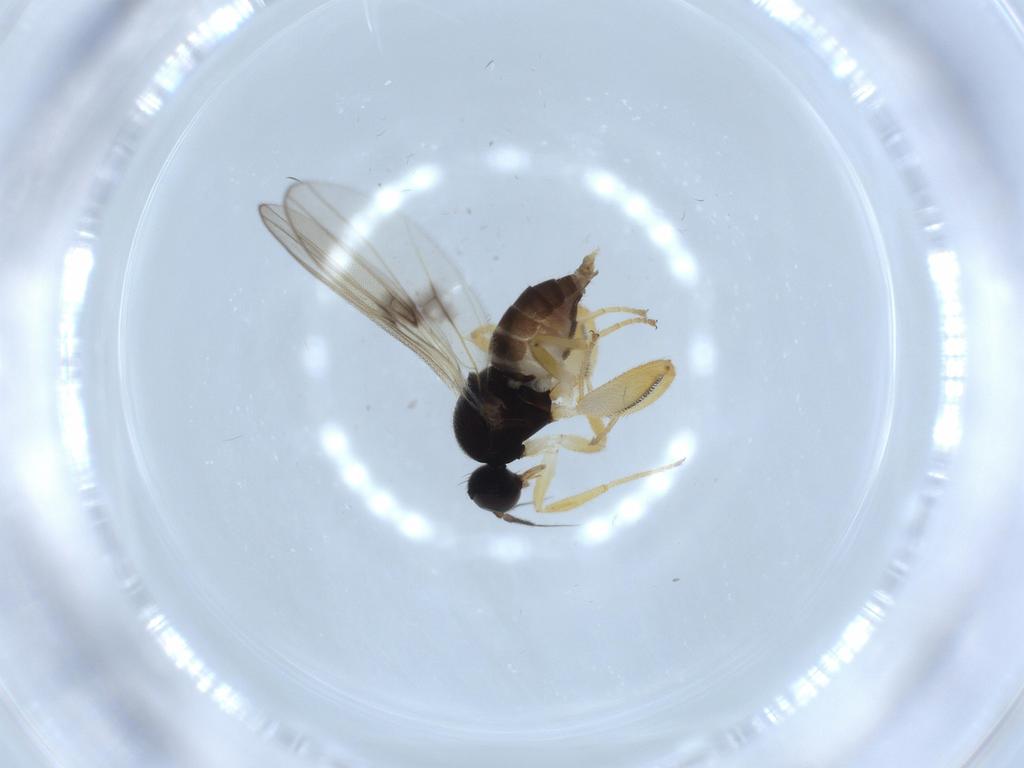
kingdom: Animalia
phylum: Arthropoda
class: Insecta
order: Diptera
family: Hybotidae
